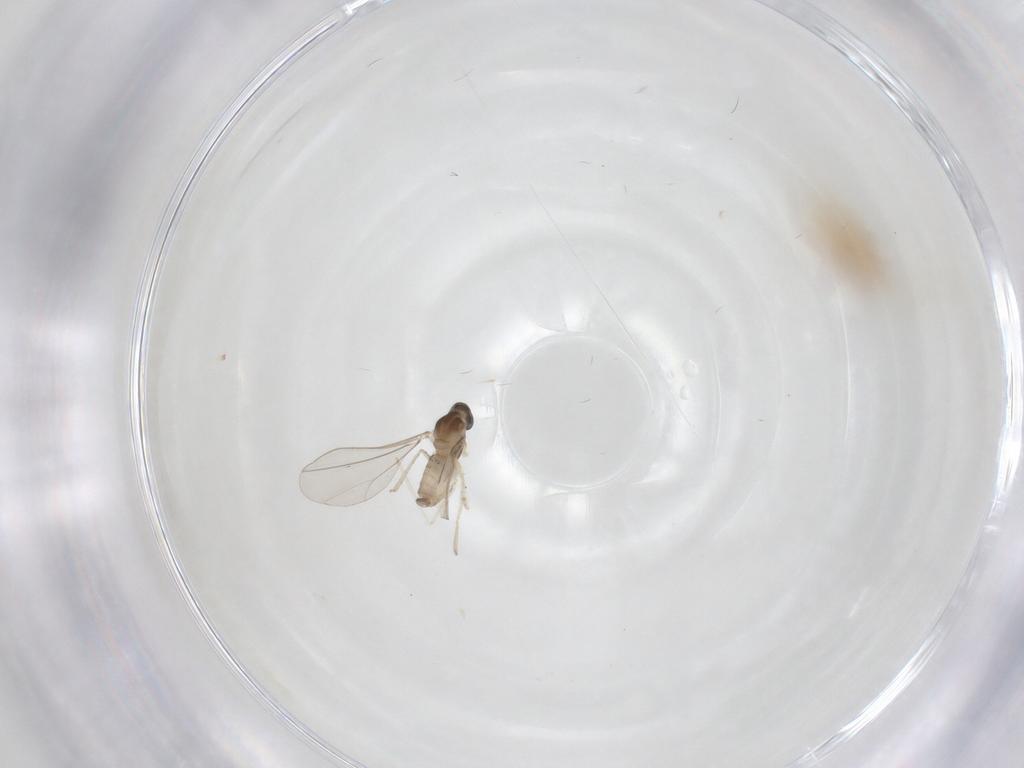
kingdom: Animalia
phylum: Arthropoda
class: Insecta
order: Diptera
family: Cecidomyiidae
